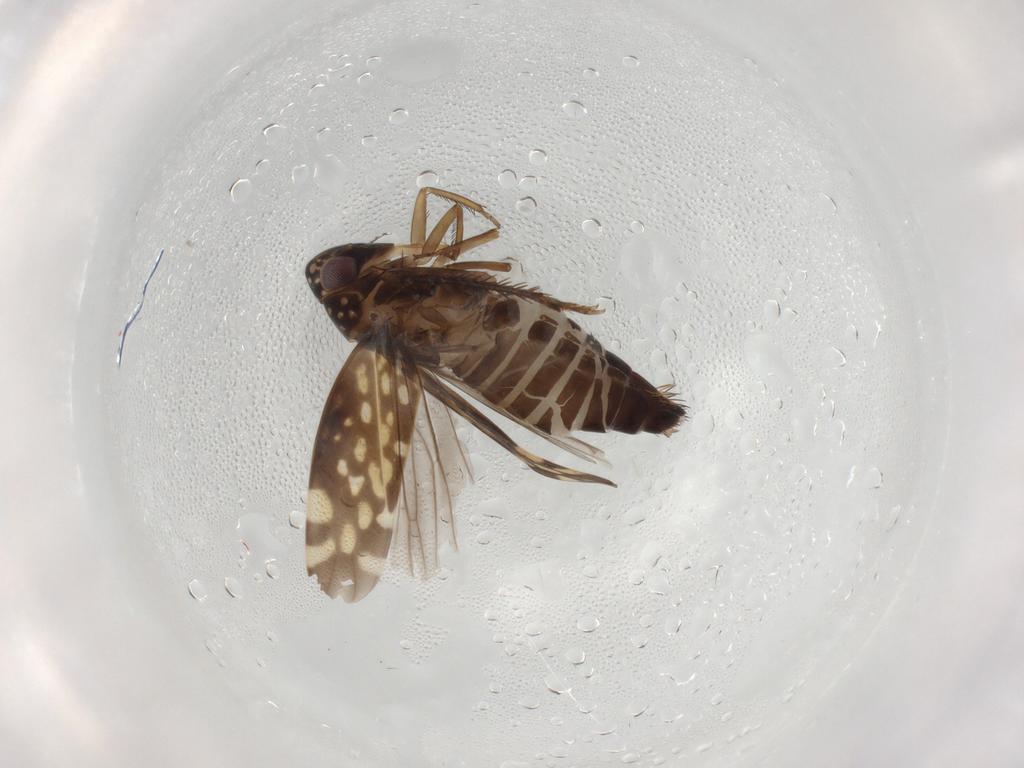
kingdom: Animalia
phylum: Arthropoda
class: Insecta
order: Hemiptera
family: Cicadellidae
